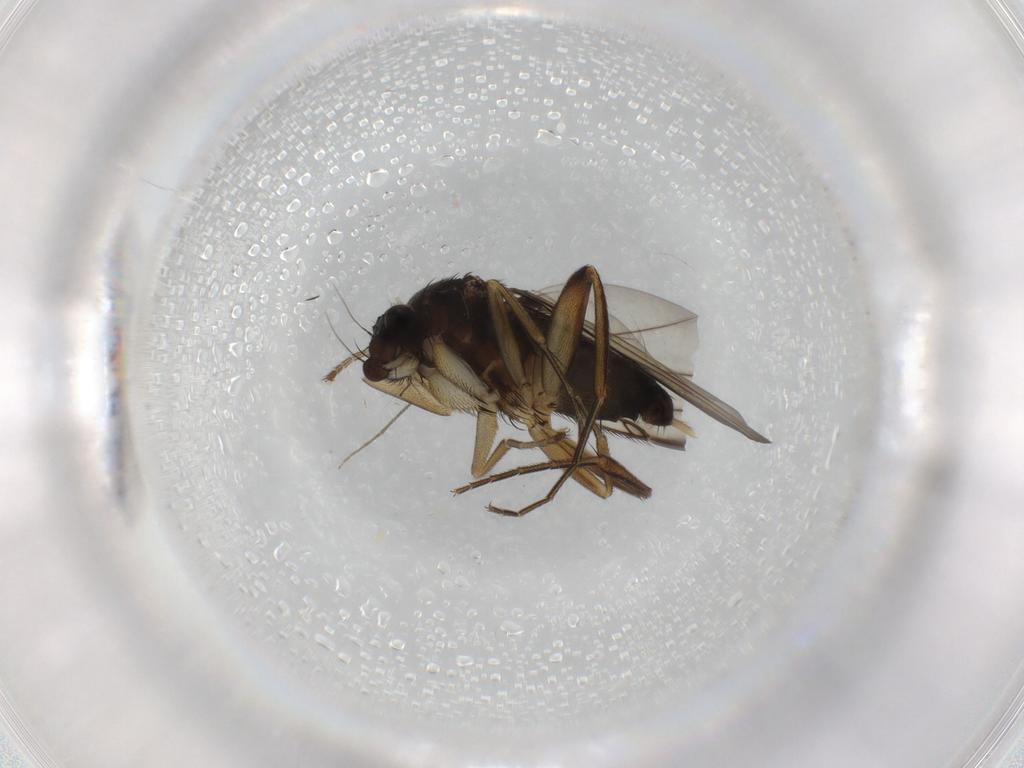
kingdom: Animalia
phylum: Arthropoda
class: Insecta
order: Diptera
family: Chironomidae
